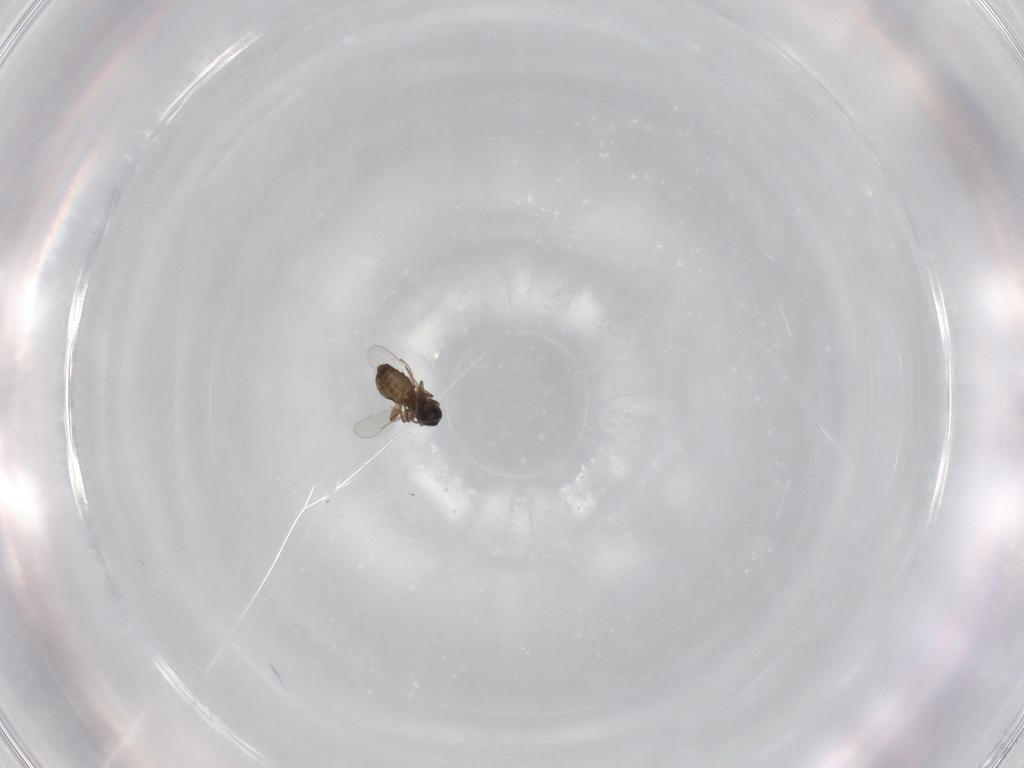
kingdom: Animalia
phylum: Arthropoda
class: Insecta
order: Diptera
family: Ceratopogonidae
